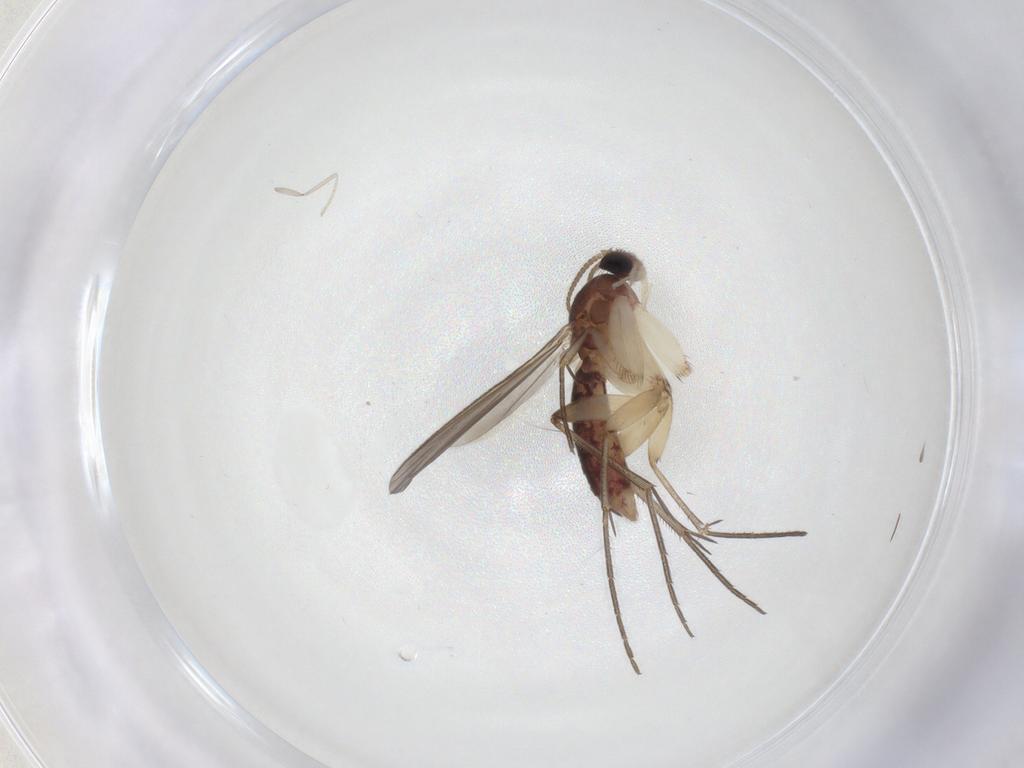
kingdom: Animalia
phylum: Arthropoda
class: Insecta
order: Diptera
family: Mycetophilidae
